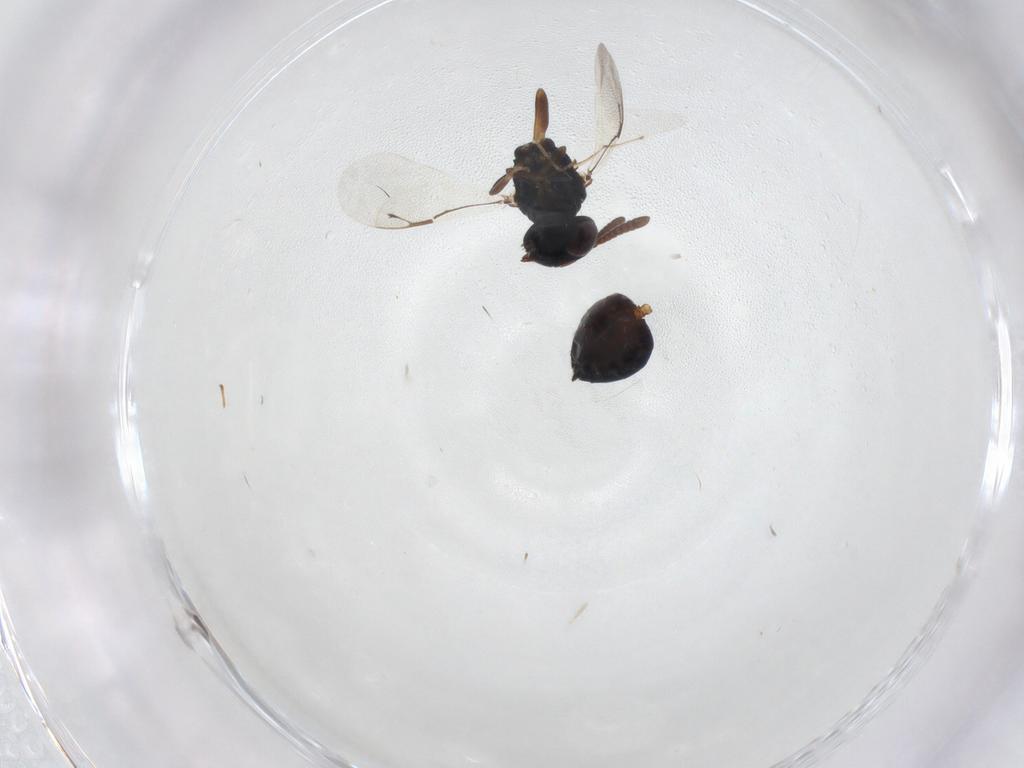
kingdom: Animalia
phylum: Arthropoda
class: Insecta
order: Hymenoptera
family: Pteromalidae
